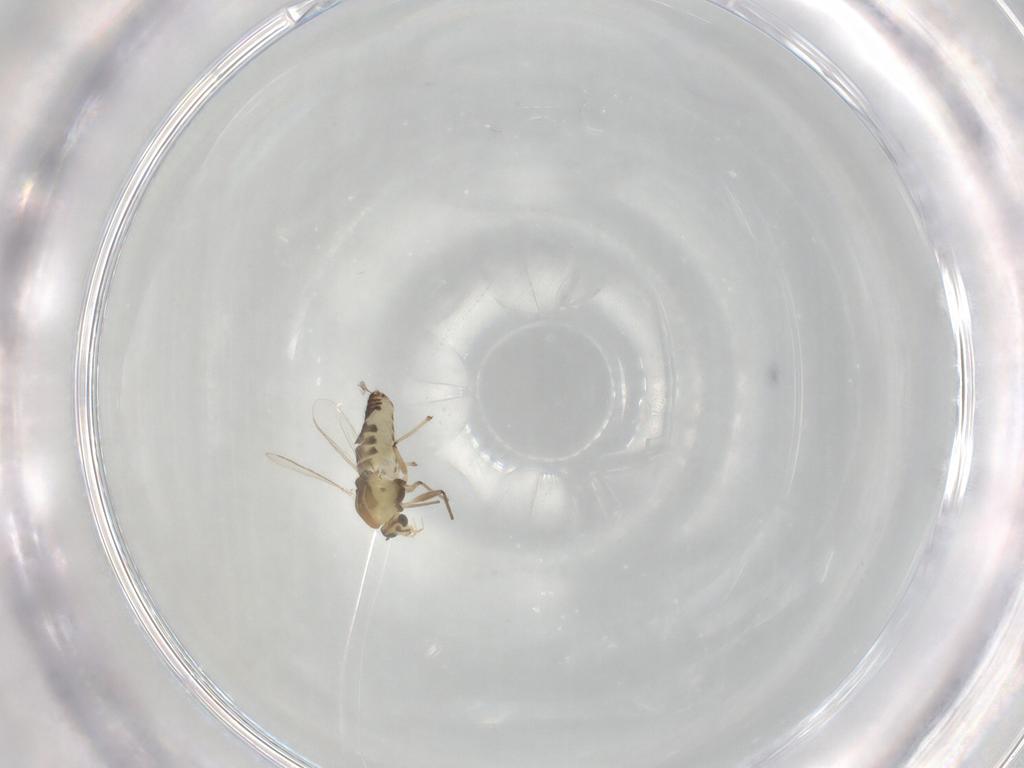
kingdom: Animalia
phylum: Arthropoda
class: Insecta
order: Diptera
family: Chironomidae
